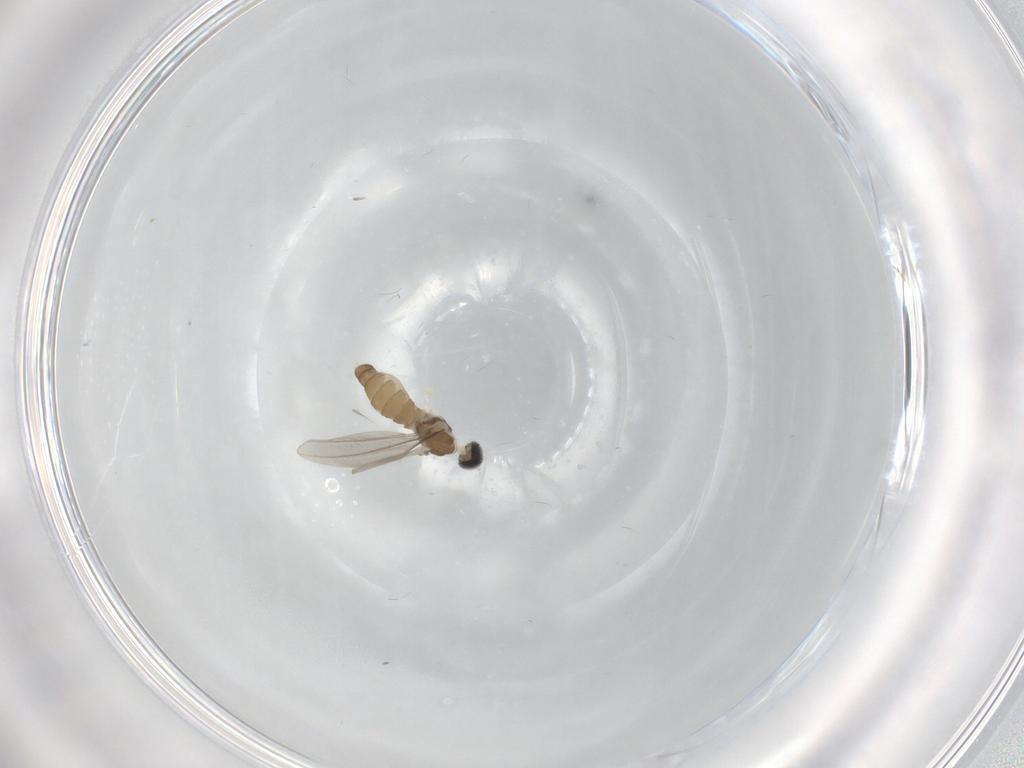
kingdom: Animalia
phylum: Arthropoda
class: Insecta
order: Diptera
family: Cecidomyiidae
